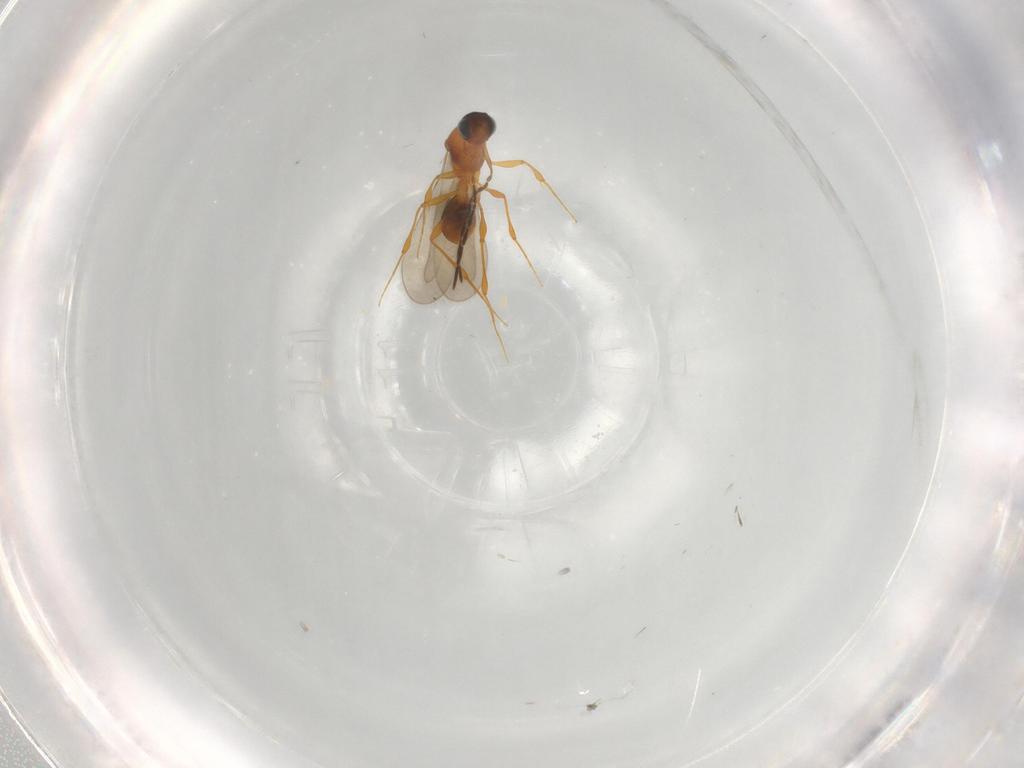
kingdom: Animalia
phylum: Arthropoda
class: Insecta
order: Hymenoptera
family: Platygastridae
